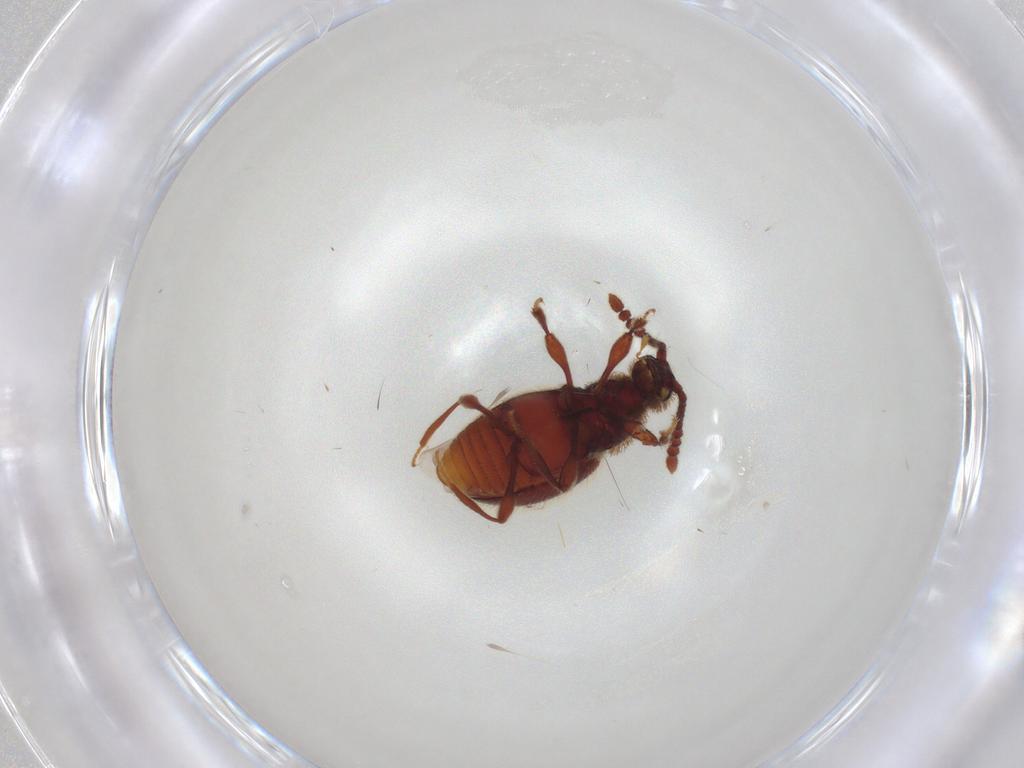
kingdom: Animalia
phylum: Arthropoda
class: Insecta
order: Coleoptera
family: Staphylinidae
